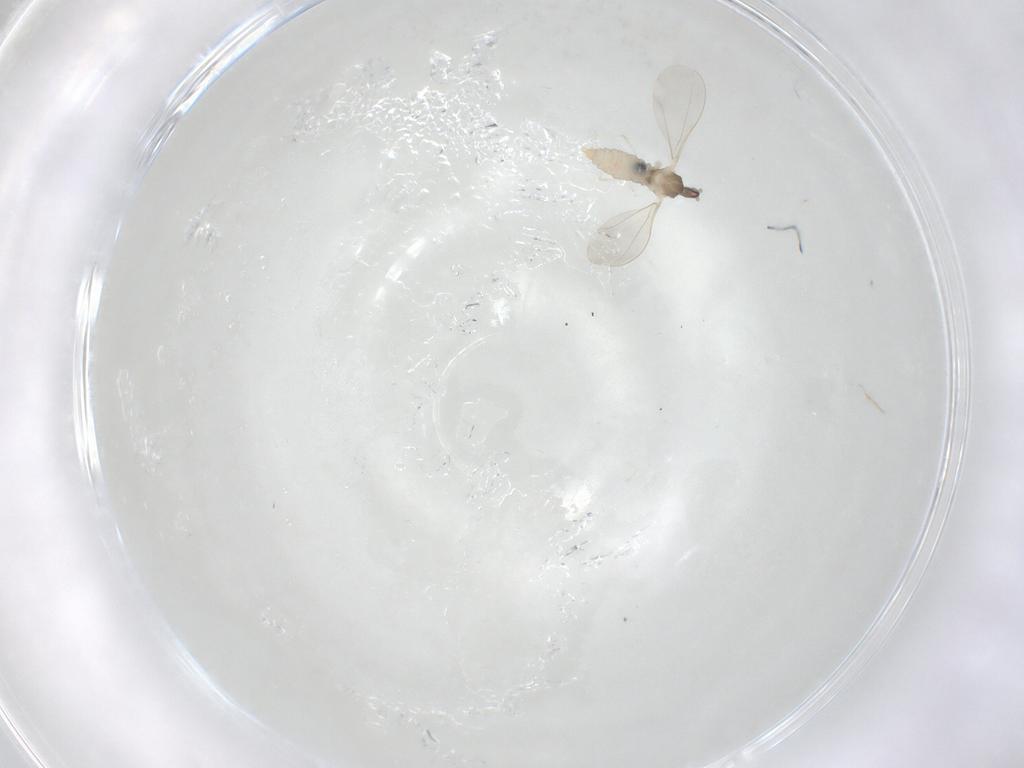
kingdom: Animalia
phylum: Arthropoda
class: Insecta
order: Diptera
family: Cecidomyiidae
